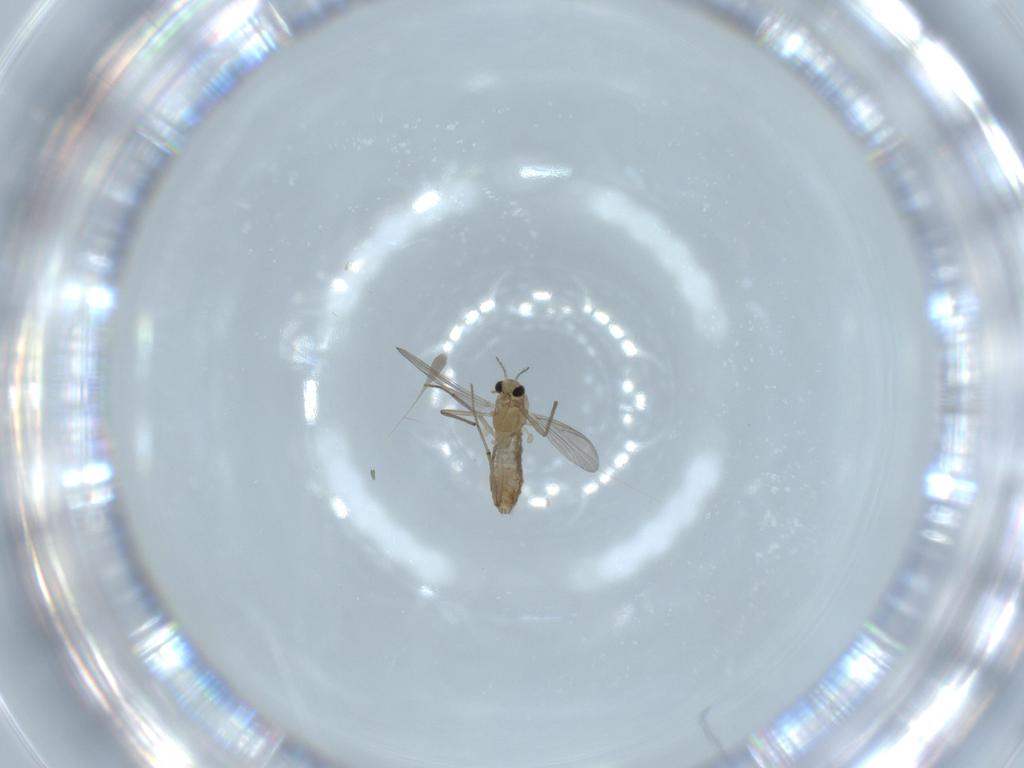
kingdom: Animalia
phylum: Arthropoda
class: Insecta
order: Diptera
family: Chironomidae
